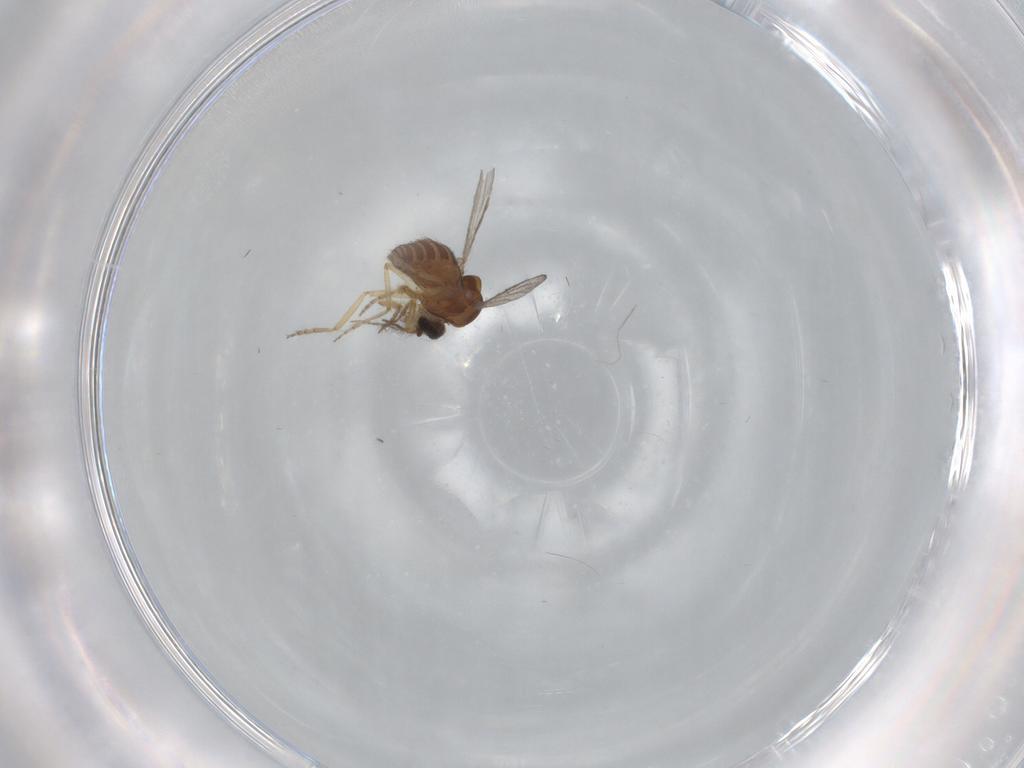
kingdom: Animalia
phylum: Arthropoda
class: Insecta
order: Diptera
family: Ceratopogonidae
